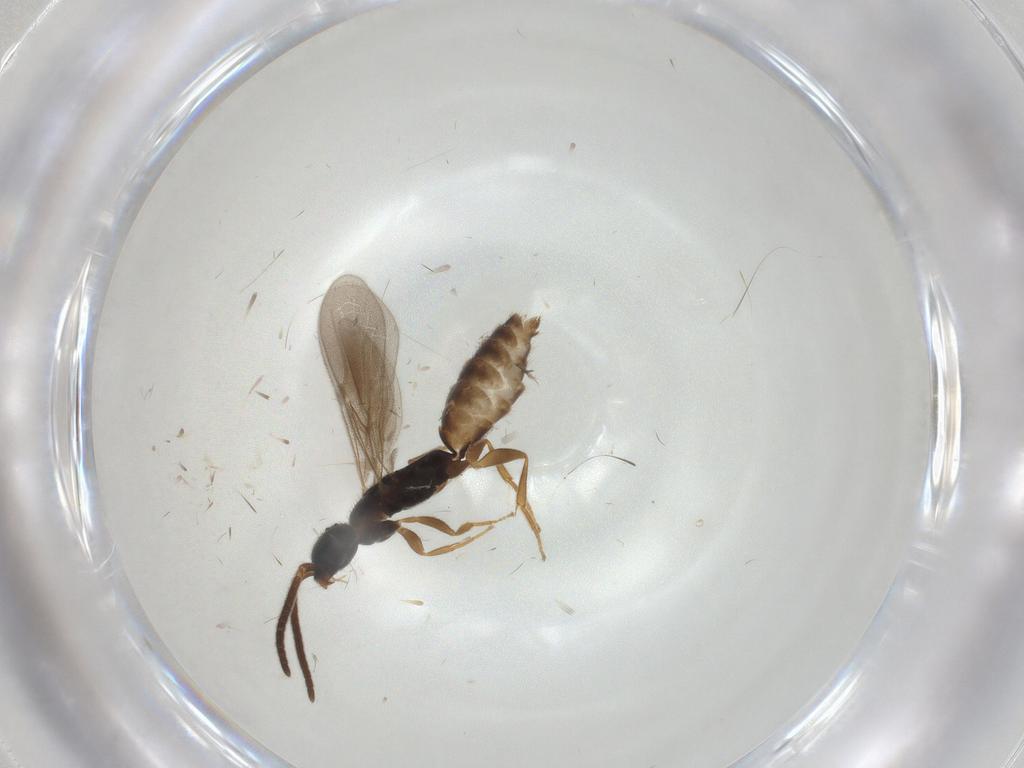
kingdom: Animalia
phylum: Arthropoda
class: Insecta
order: Hymenoptera
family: Bethylidae
